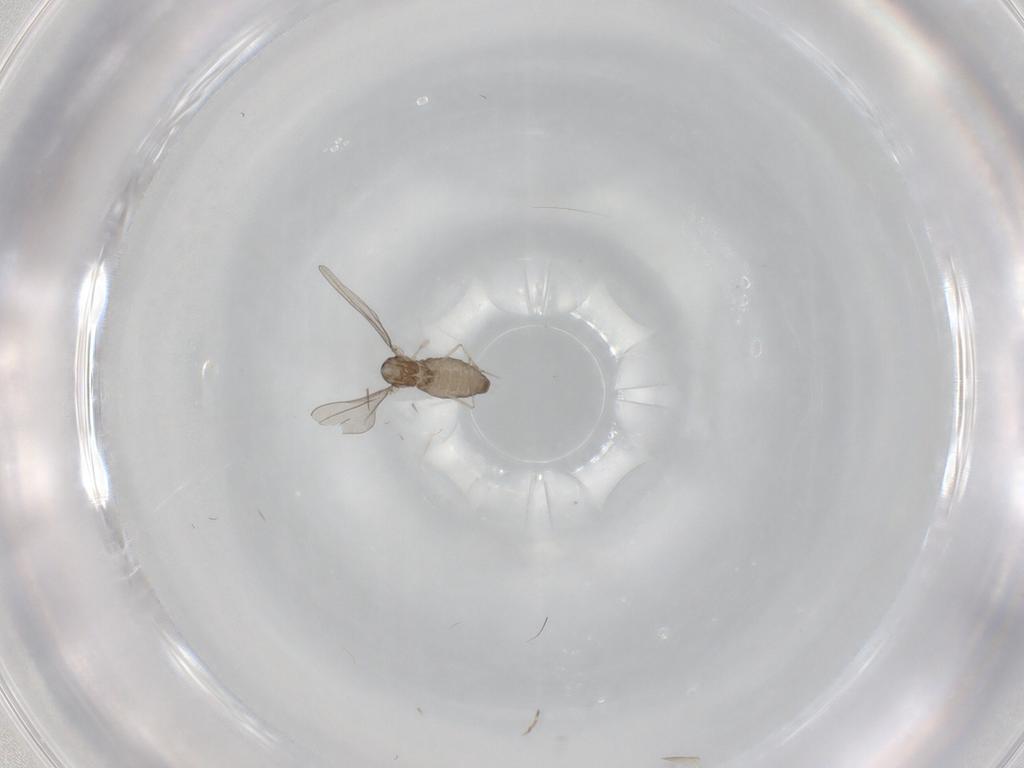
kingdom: Animalia
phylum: Arthropoda
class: Insecta
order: Diptera
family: Cecidomyiidae
